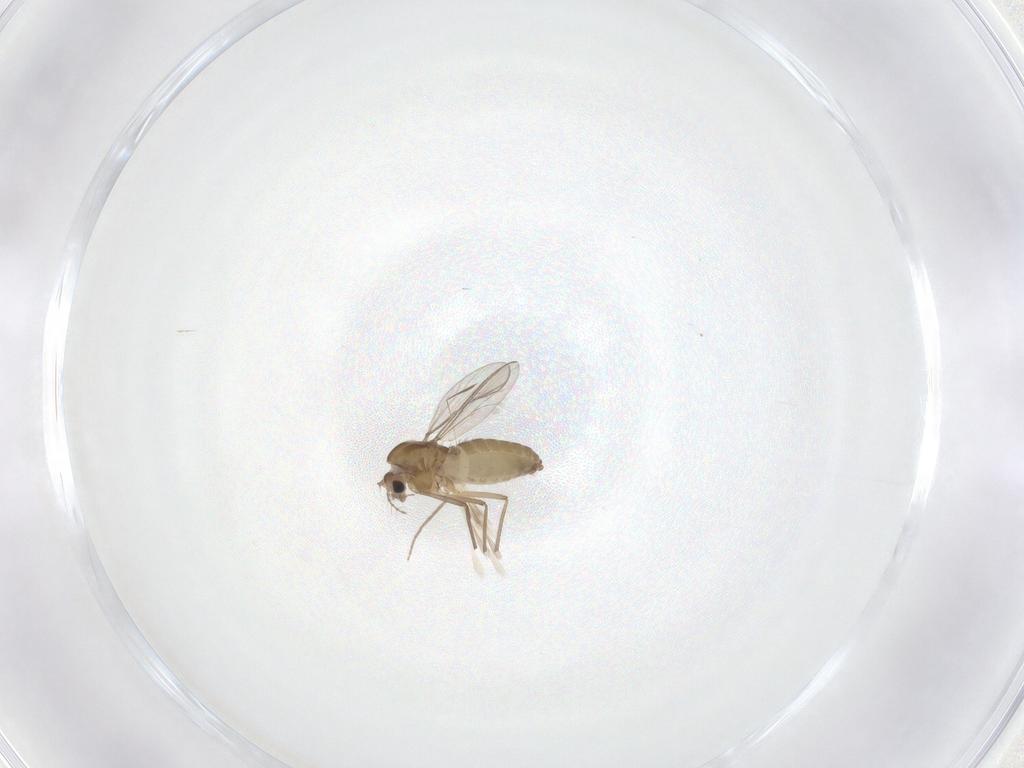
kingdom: Animalia
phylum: Arthropoda
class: Insecta
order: Diptera
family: Chironomidae
